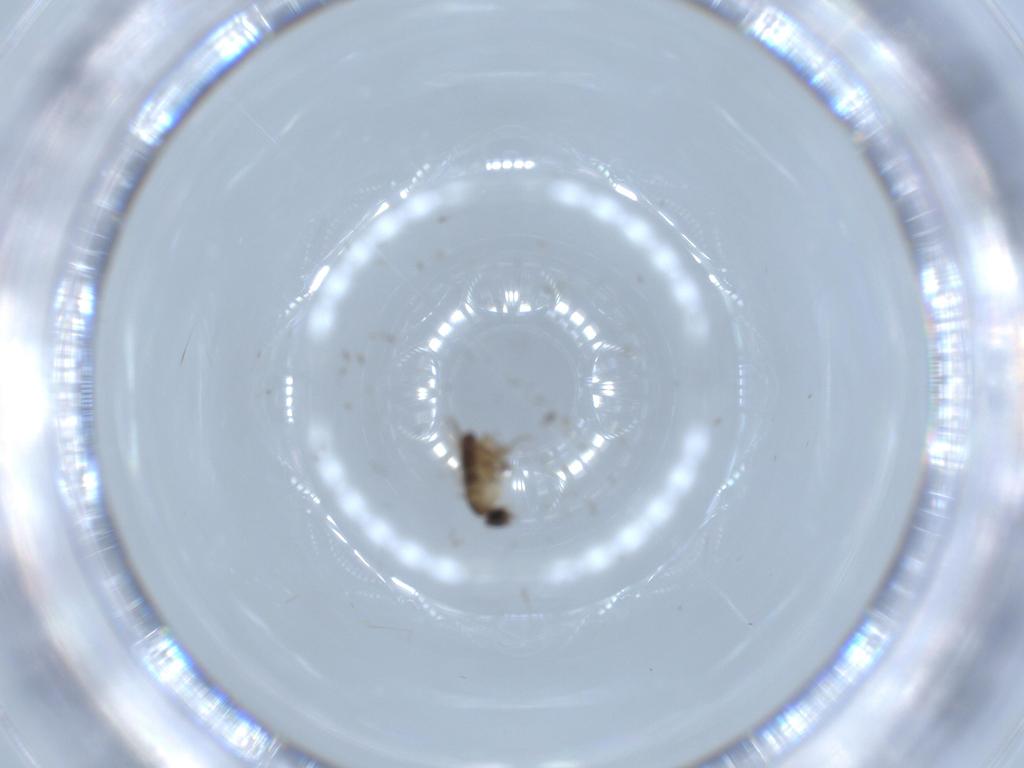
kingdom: Animalia
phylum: Arthropoda
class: Insecta
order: Diptera
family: Phoridae
